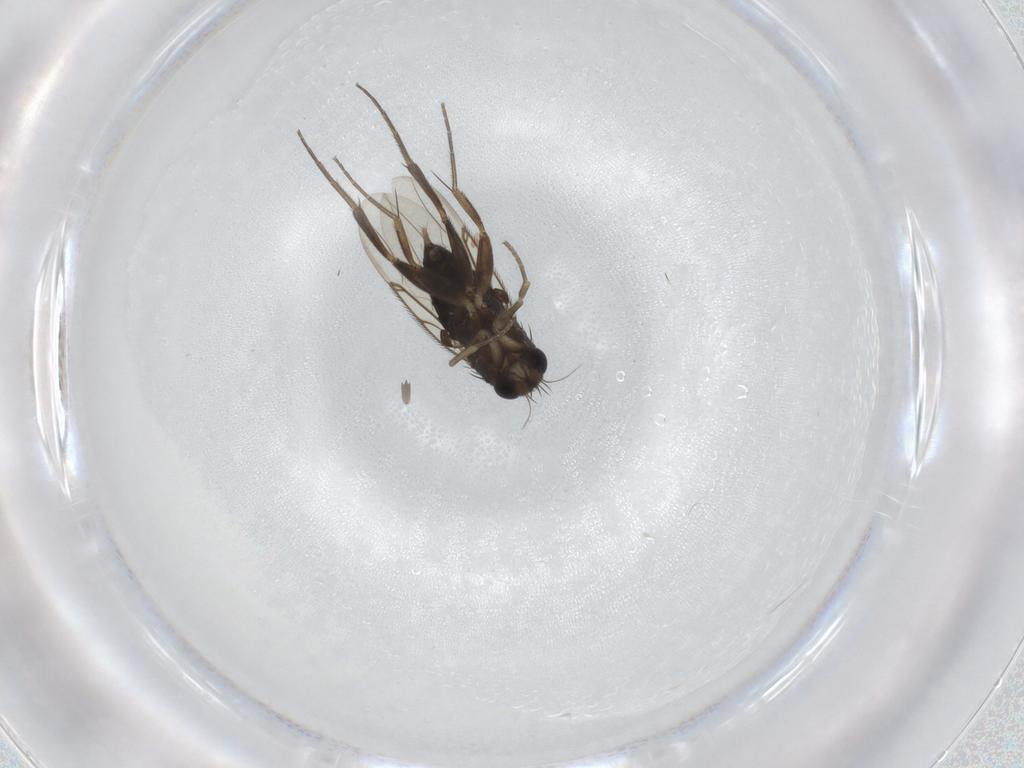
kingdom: Animalia
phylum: Arthropoda
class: Insecta
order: Diptera
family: Phoridae
